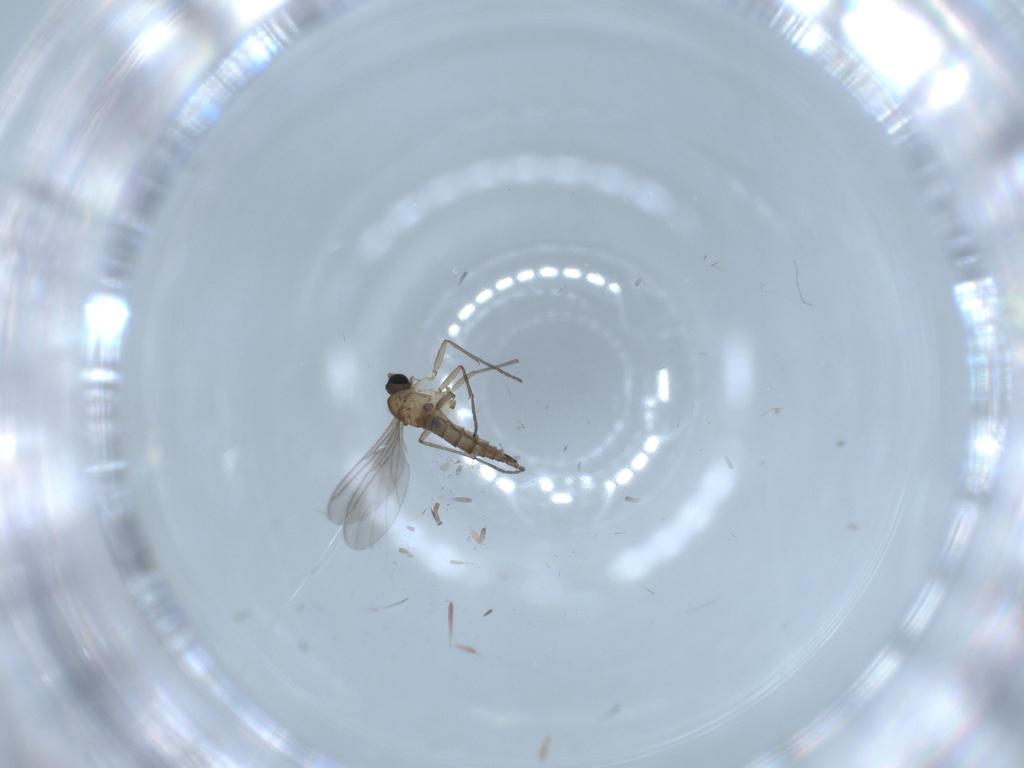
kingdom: Animalia
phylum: Arthropoda
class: Insecta
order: Diptera
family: Sciaridae
